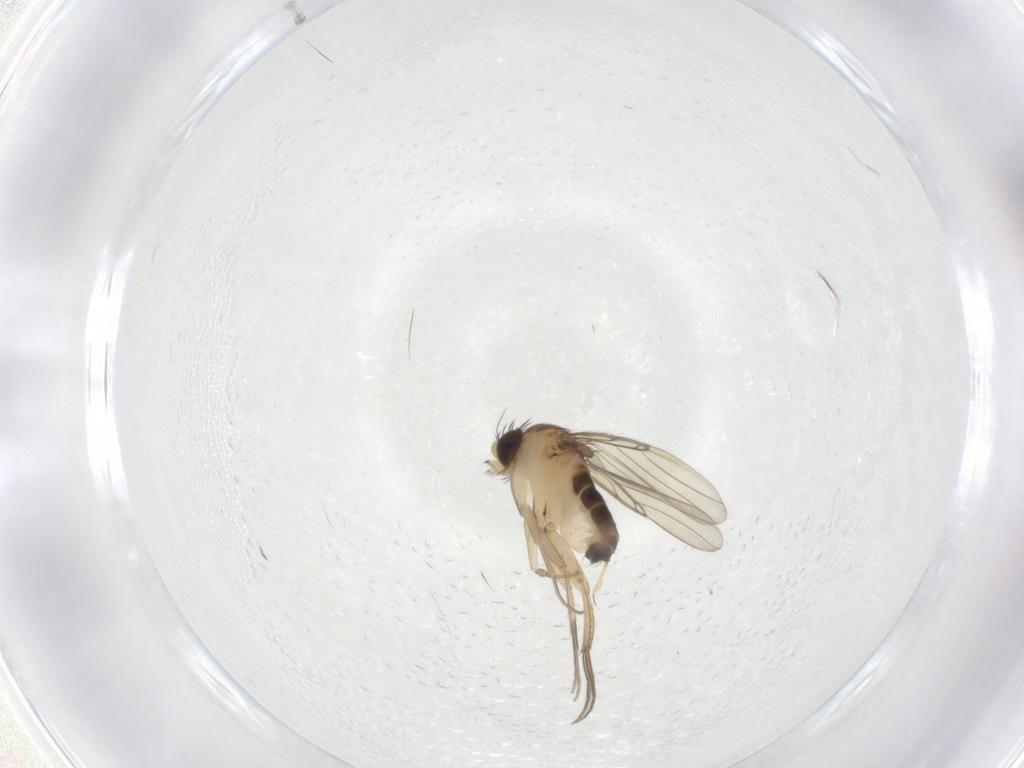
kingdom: Animalia
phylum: Arthropoda
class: Insecta
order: Diptera
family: Phoridae
